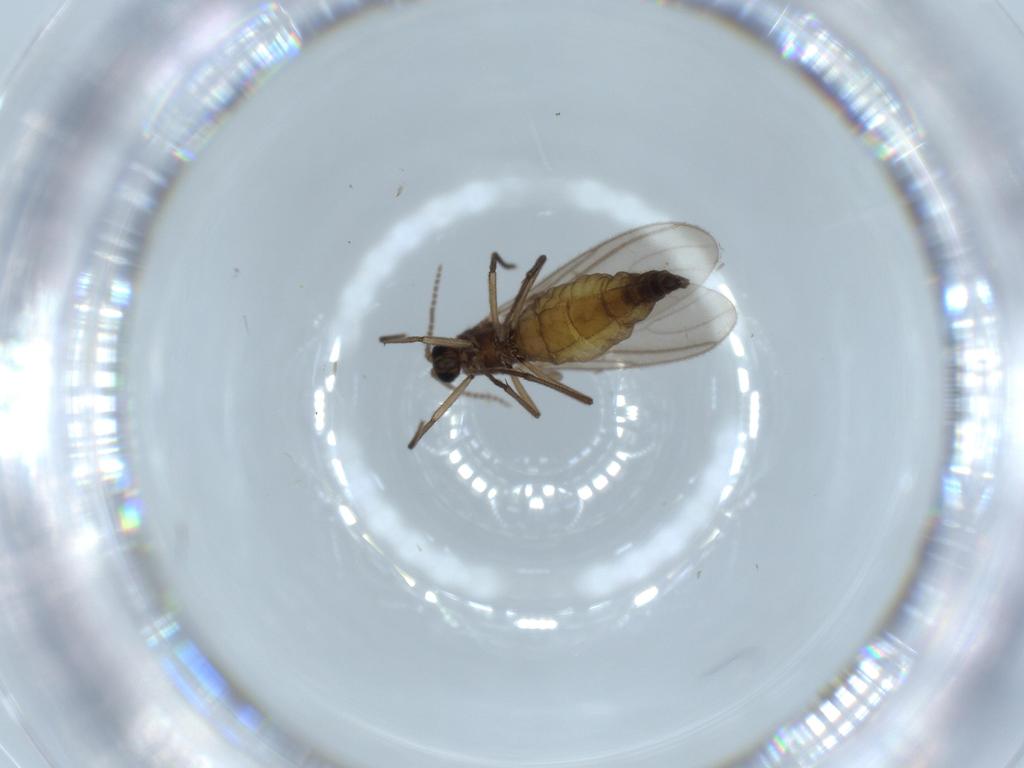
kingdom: Animalia
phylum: Arthropoda
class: Insecta
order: Diptera
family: Sciaridae
